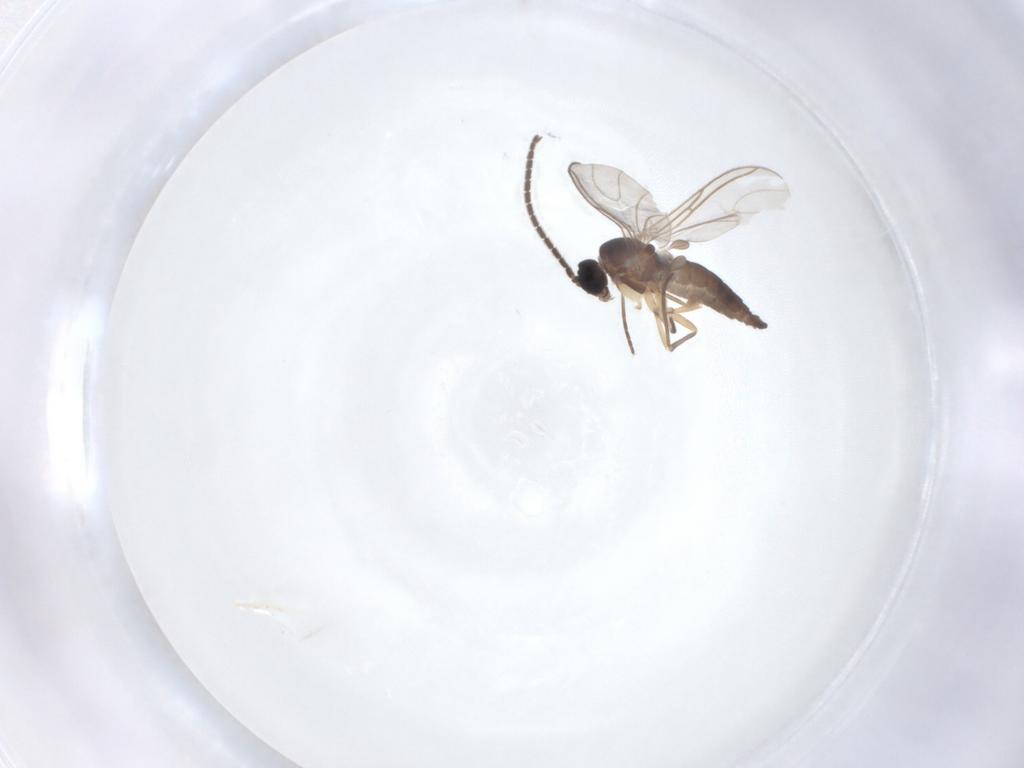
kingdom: Animalia
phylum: Arthropoda
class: Insecta
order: Diptera
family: Sciaridae
